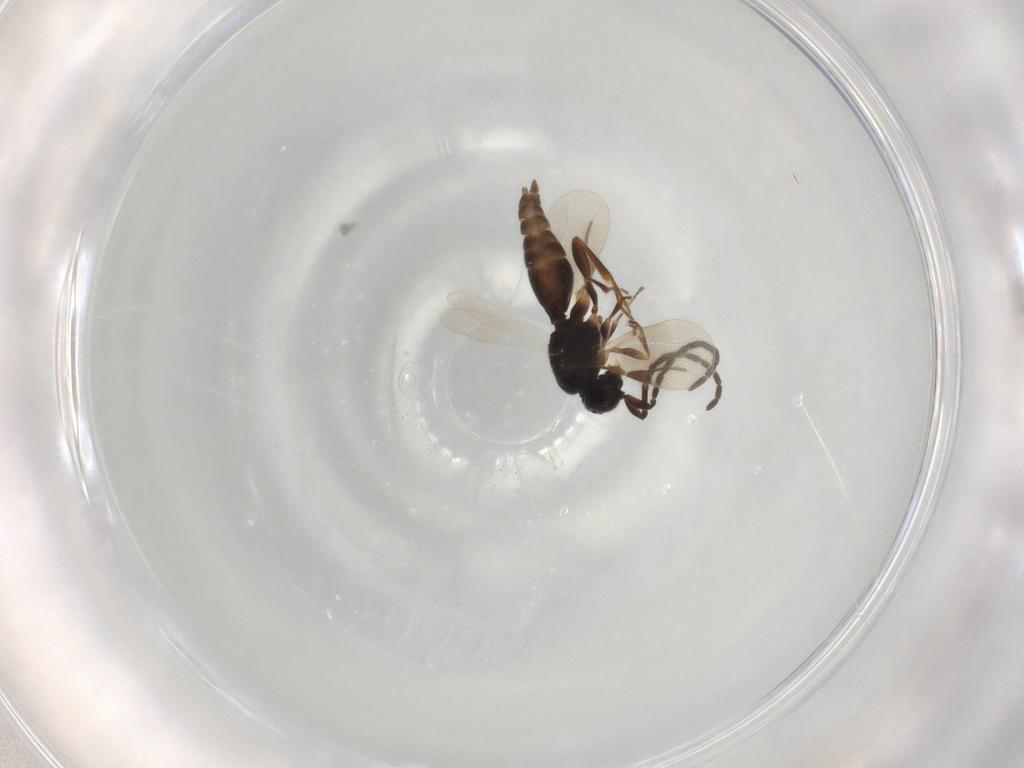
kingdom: Animalia
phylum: Arthropoda
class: Insecta
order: Hymenoptera
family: Megaspilidae
